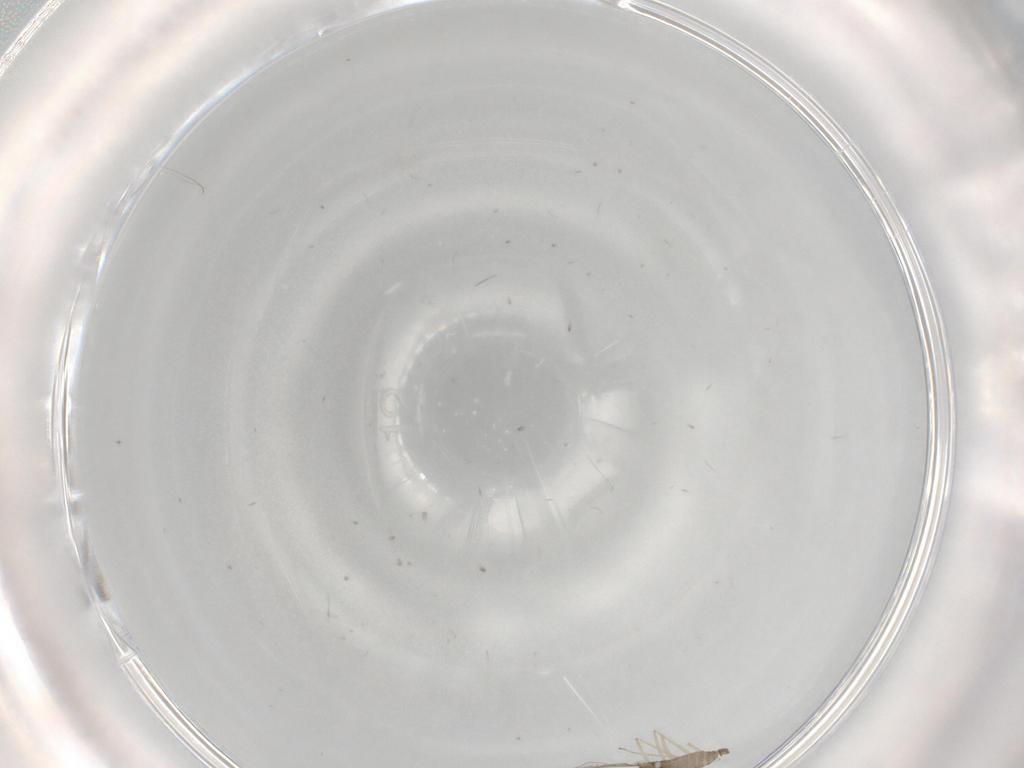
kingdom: Animalia
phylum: Arthropoda
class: Insecta
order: Diptera
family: Phoridae
